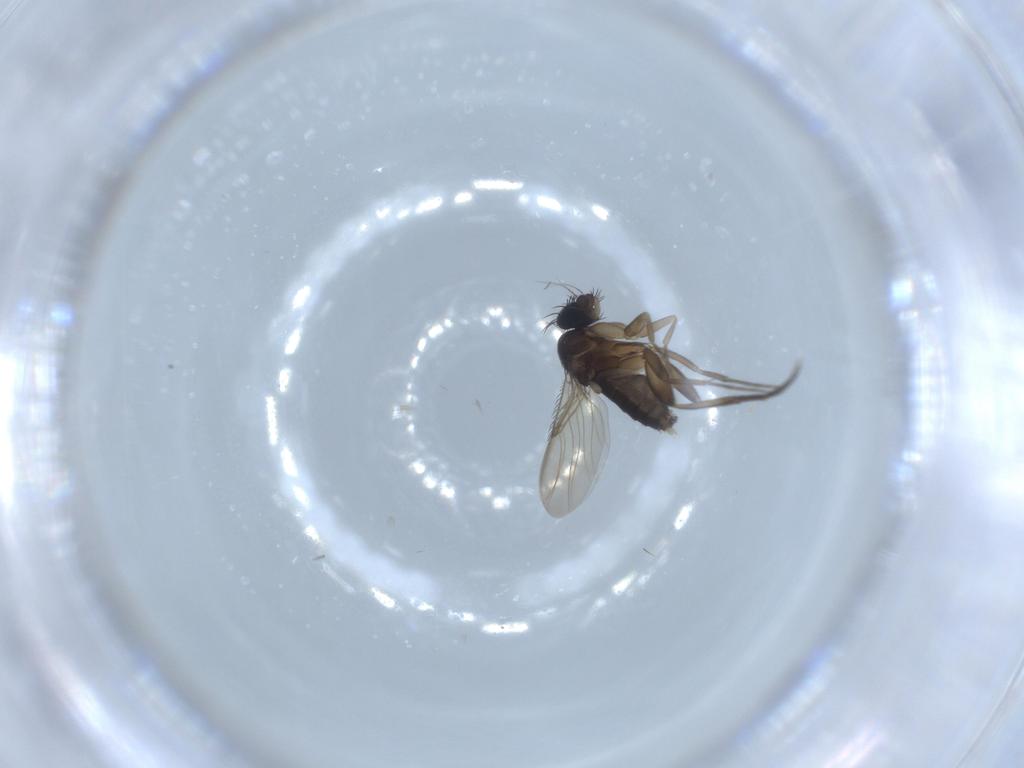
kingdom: Animalia
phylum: Arthropoda
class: Insecta
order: Diptera
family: Phoridae
